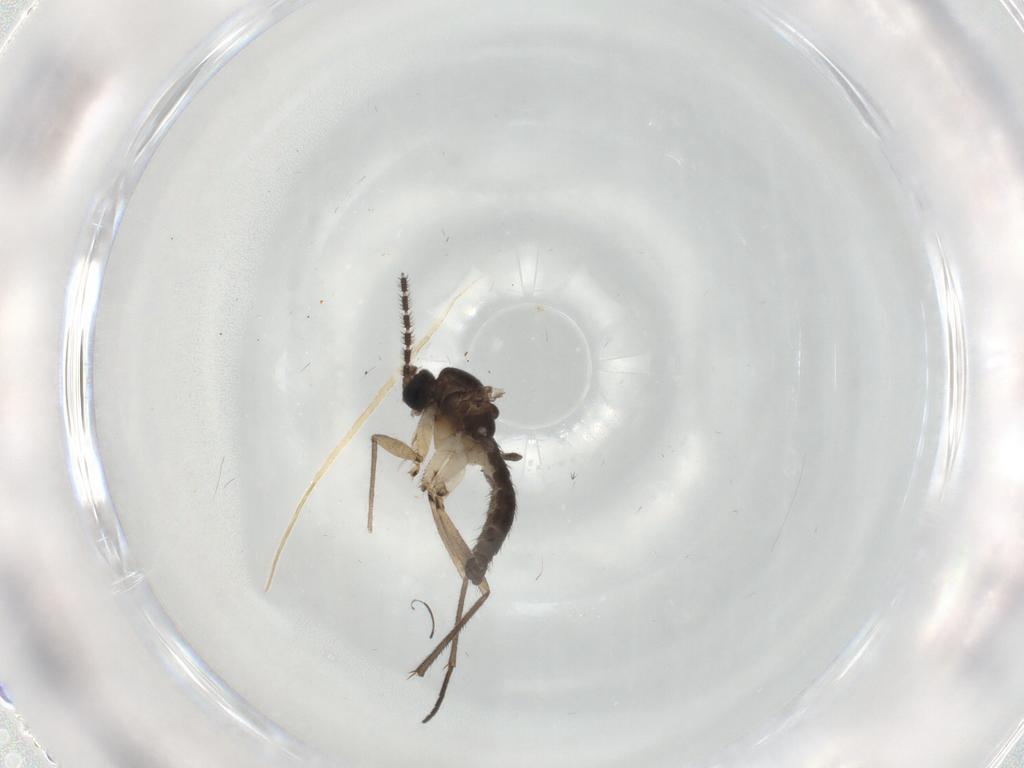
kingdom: Animalia
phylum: Arthropoda
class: Insecta
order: Diptera
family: Sciaridae
